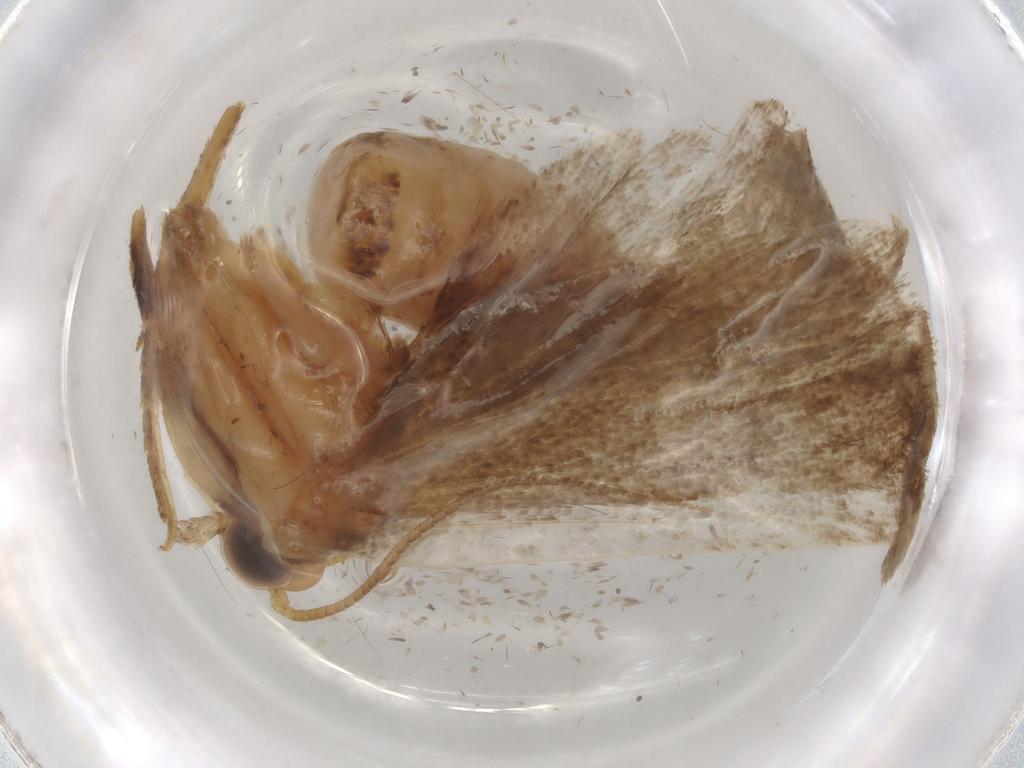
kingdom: Animalia
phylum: Arthropoda
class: Insecta
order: Lepidoptera
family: Pyralidae
